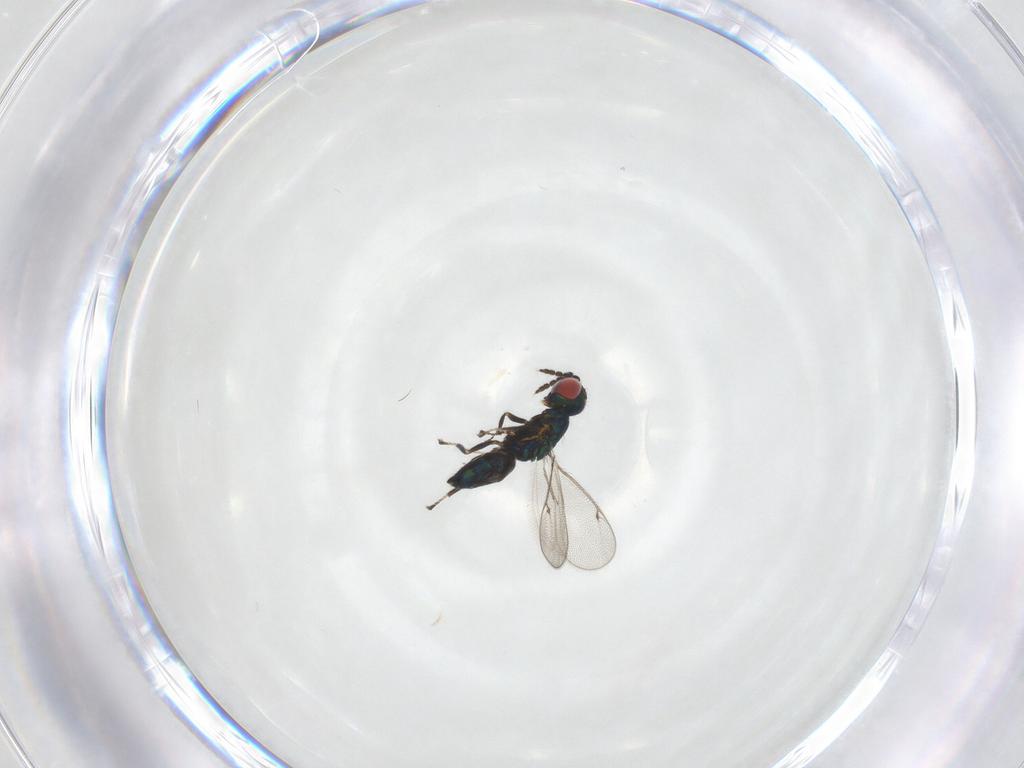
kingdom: Animalia
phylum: Arthropoda
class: Insecta
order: Hymenoptera
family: Eulophidae
